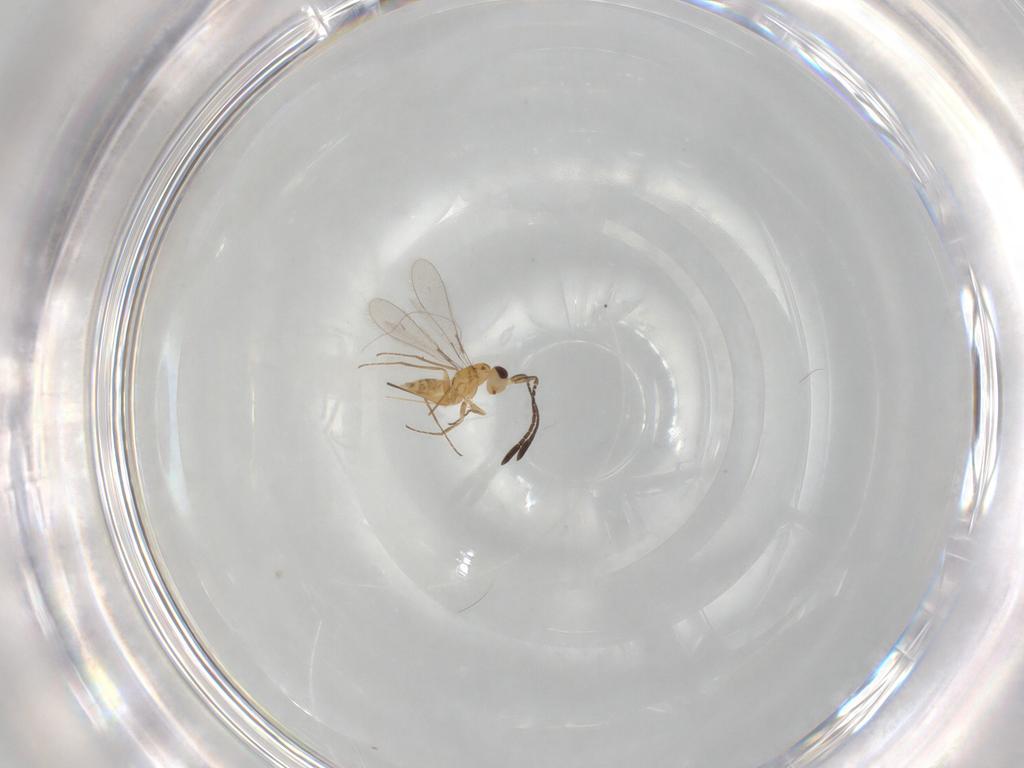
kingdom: Animalia
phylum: Arthropoda
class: Insecta
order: Hymenoptera
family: Mymaridae
